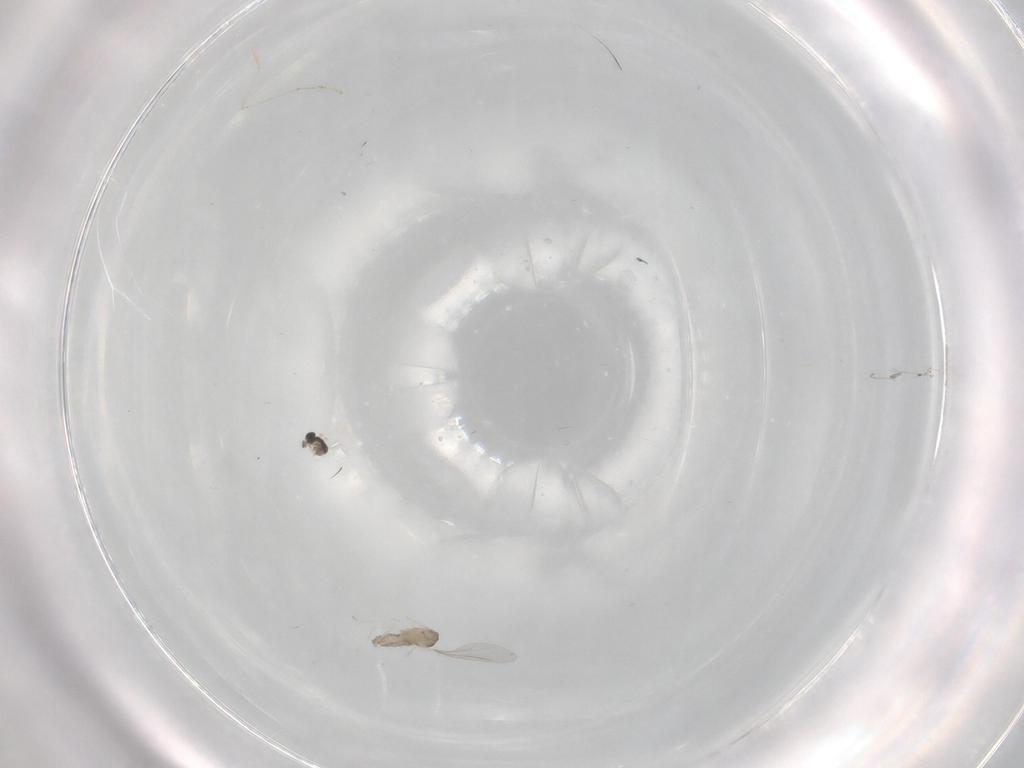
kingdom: Animalia
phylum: Arthropoda
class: Insecta
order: Diptera
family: Cecidomyiidae
